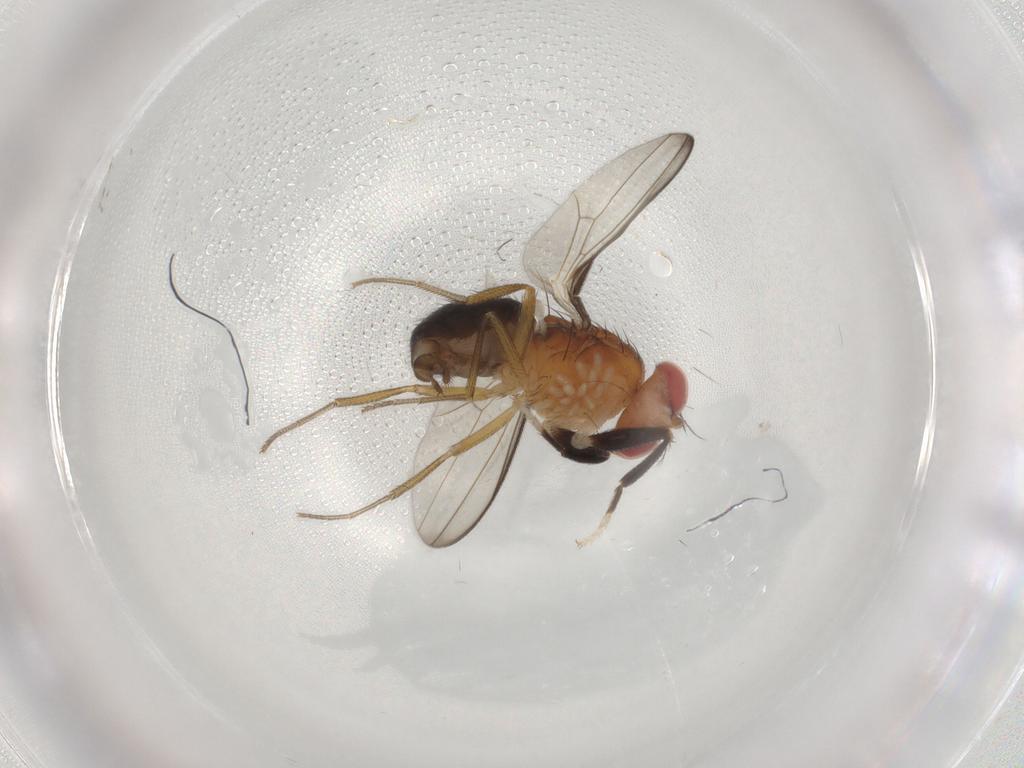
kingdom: Animalia
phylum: Arthropoda
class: Insecta
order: Diptera
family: Drosophilidae
